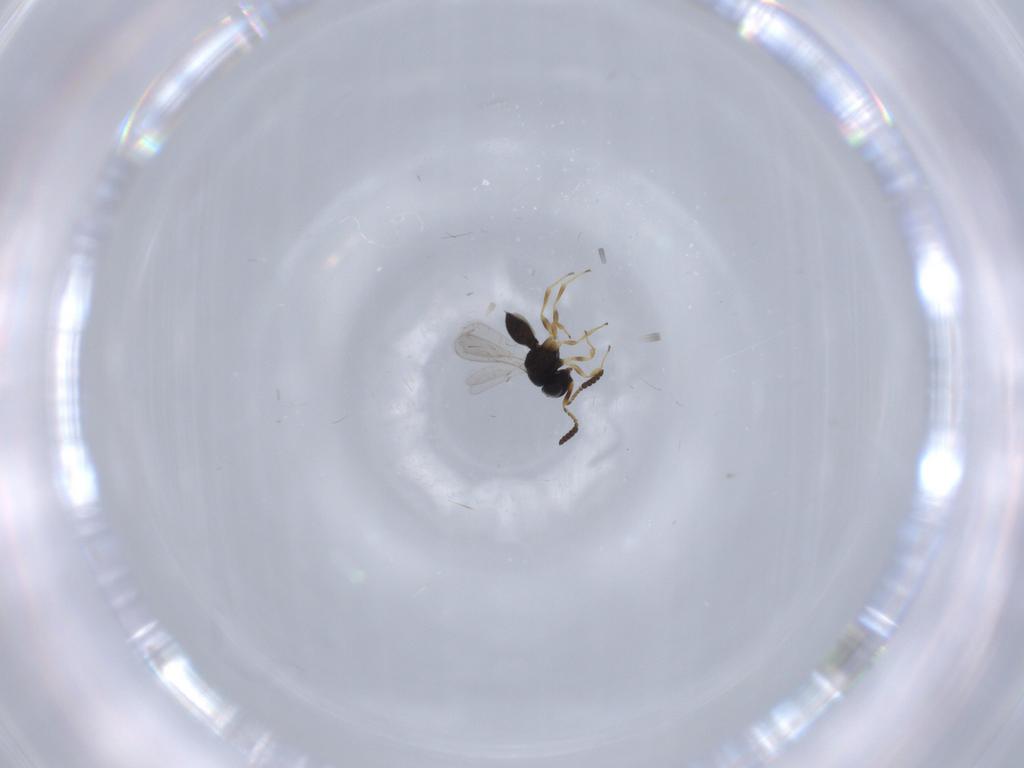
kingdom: Animalia
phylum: Arthropoda
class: Insecta
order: Hymenoptera
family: Scelionidae
